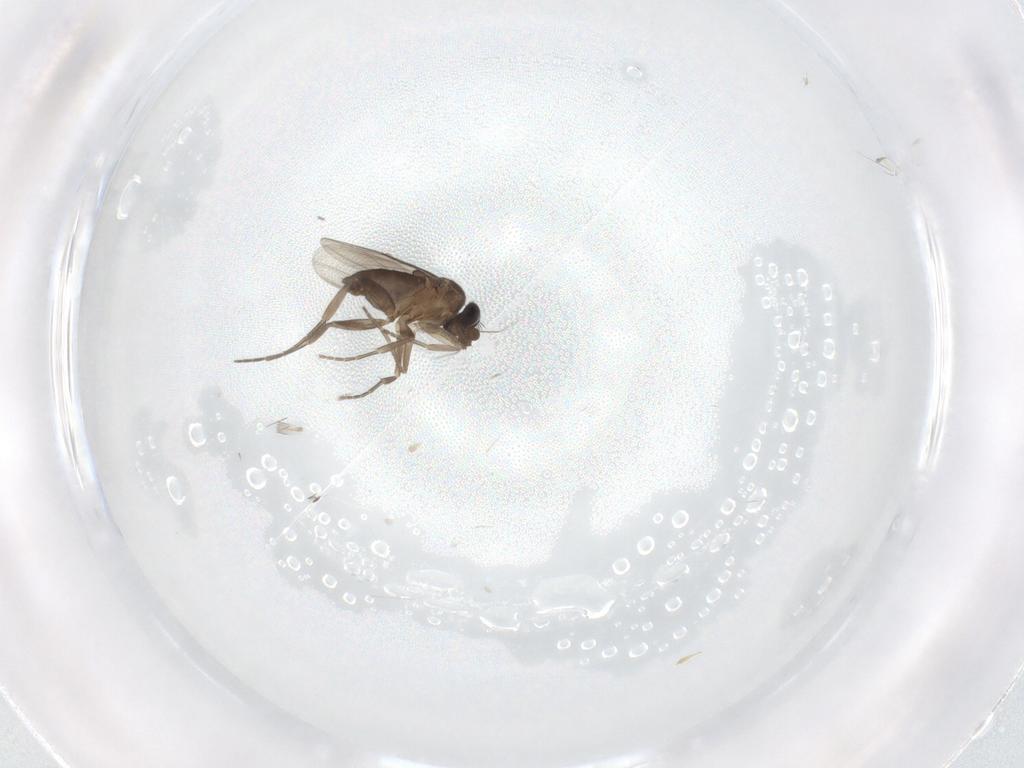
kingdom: Animalia
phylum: Arthropoda
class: Insecta
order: Diptera
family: Phoridae
